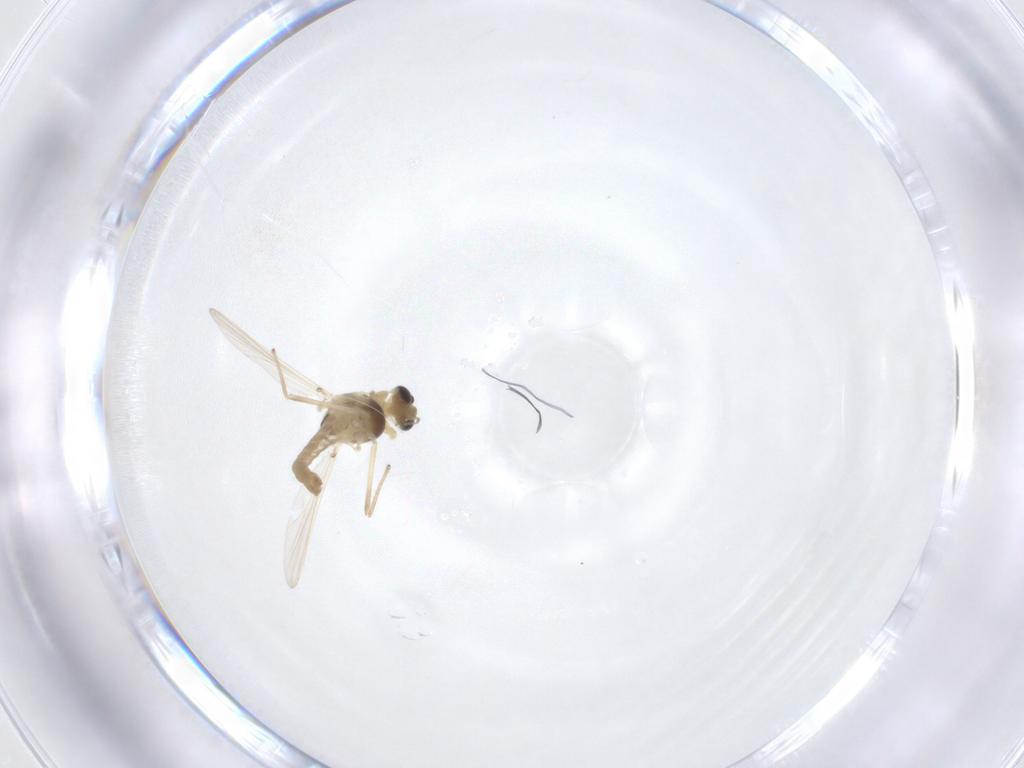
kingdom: Animalia
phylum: Arthropoda
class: Insecta
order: Diptera
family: Chironomidae
